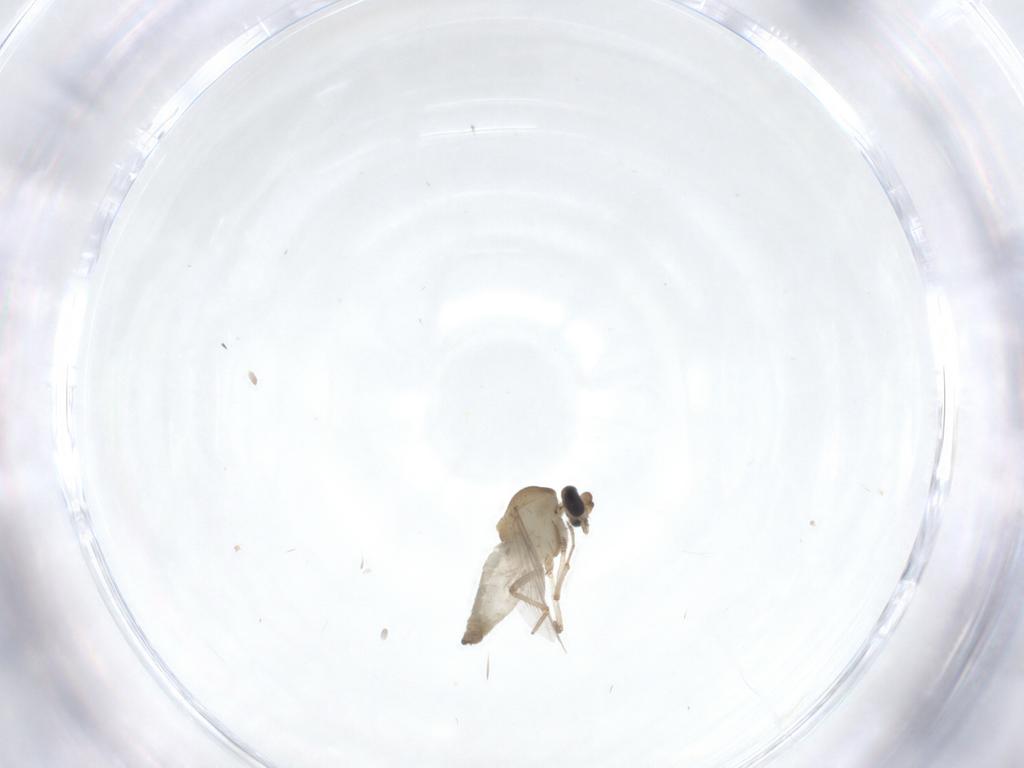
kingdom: Animalia
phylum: Arthropoda
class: Insecta
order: Diptera
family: Ceratopogonidae
